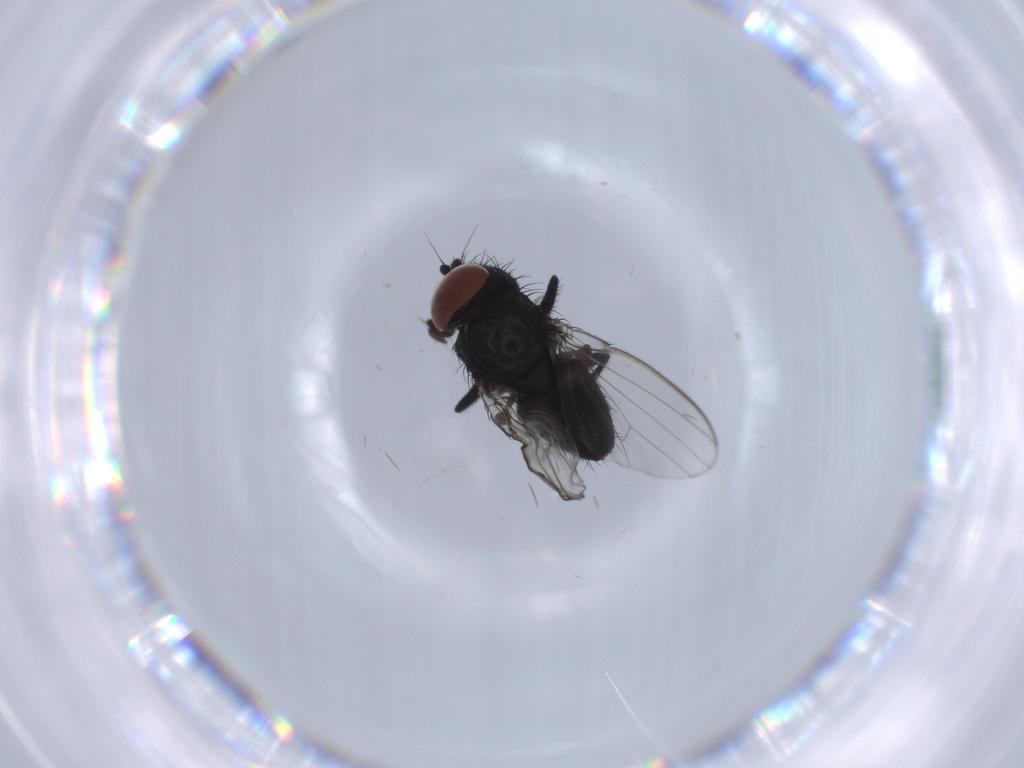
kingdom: Animalia
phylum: Arthropoda
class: Insecta
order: Diptera
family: Milichiidae
